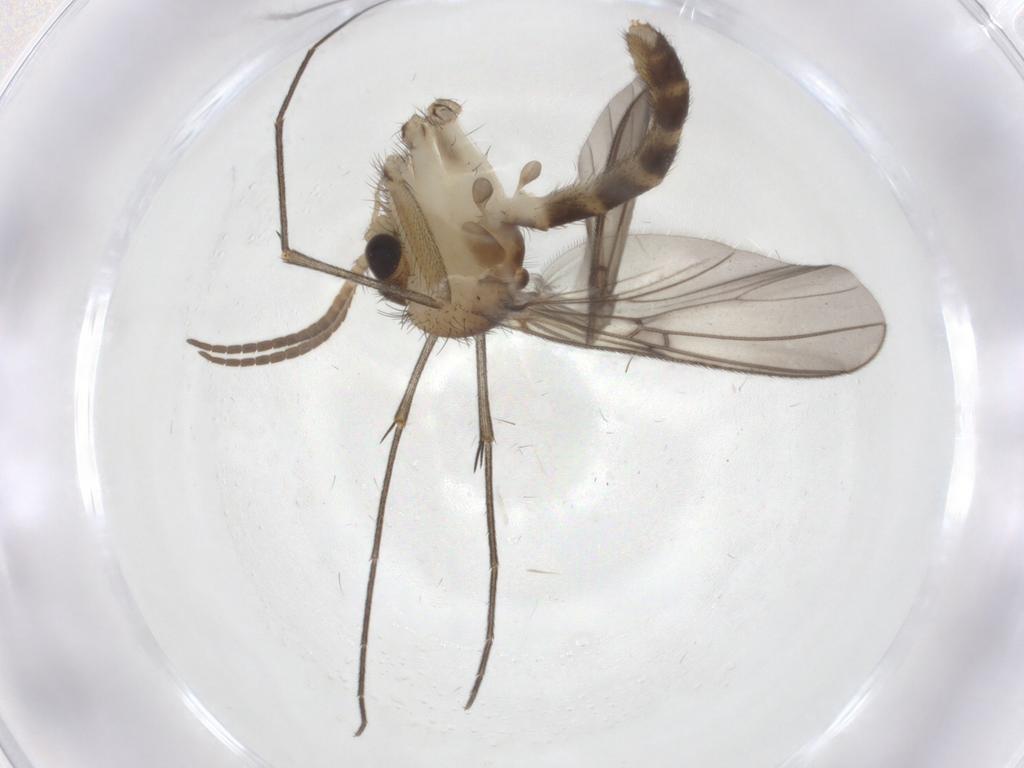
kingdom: Animalia
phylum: Arthropoda
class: Insecta
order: Diptera
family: Mycetophilidae
